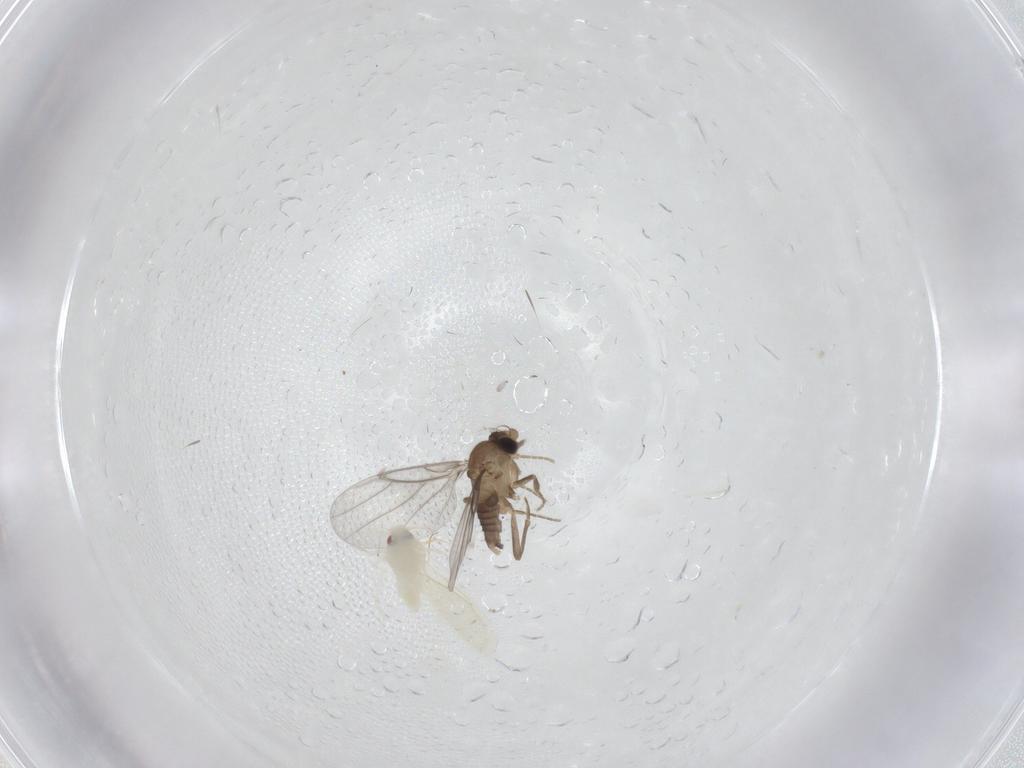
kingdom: Animalia
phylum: Arthropoda
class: Insecta
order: Hemiptera
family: Aleyrodidae
